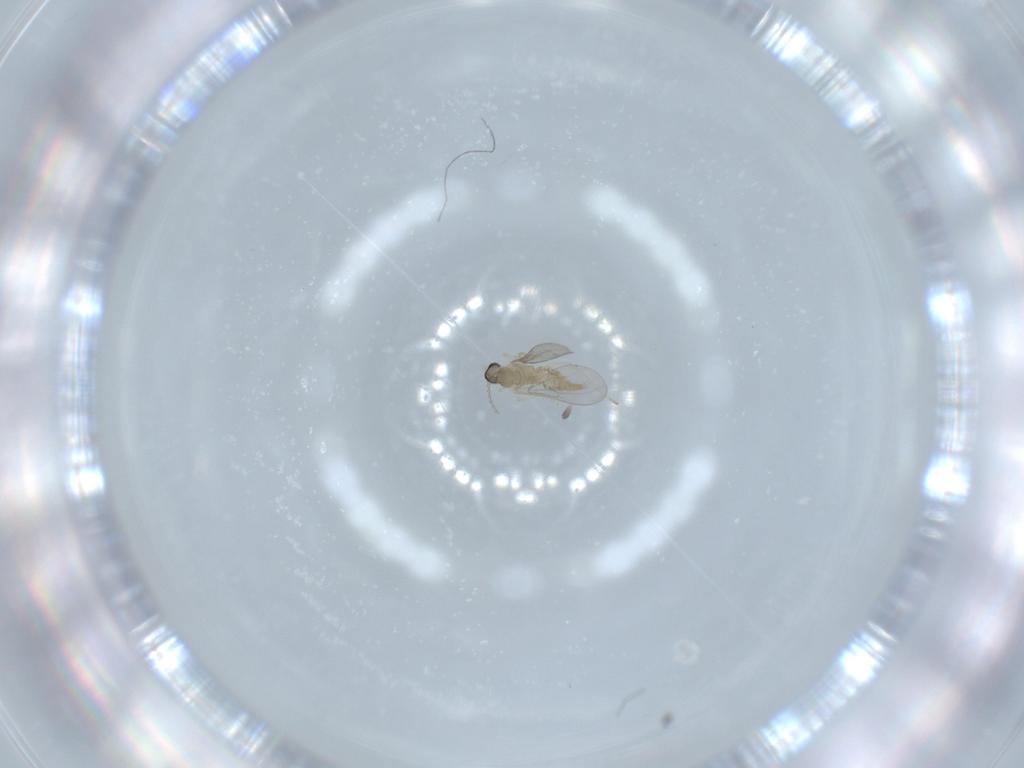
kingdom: Animalia
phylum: Arthropoda
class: Insecta
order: Diptera
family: Cecidomyiidae
